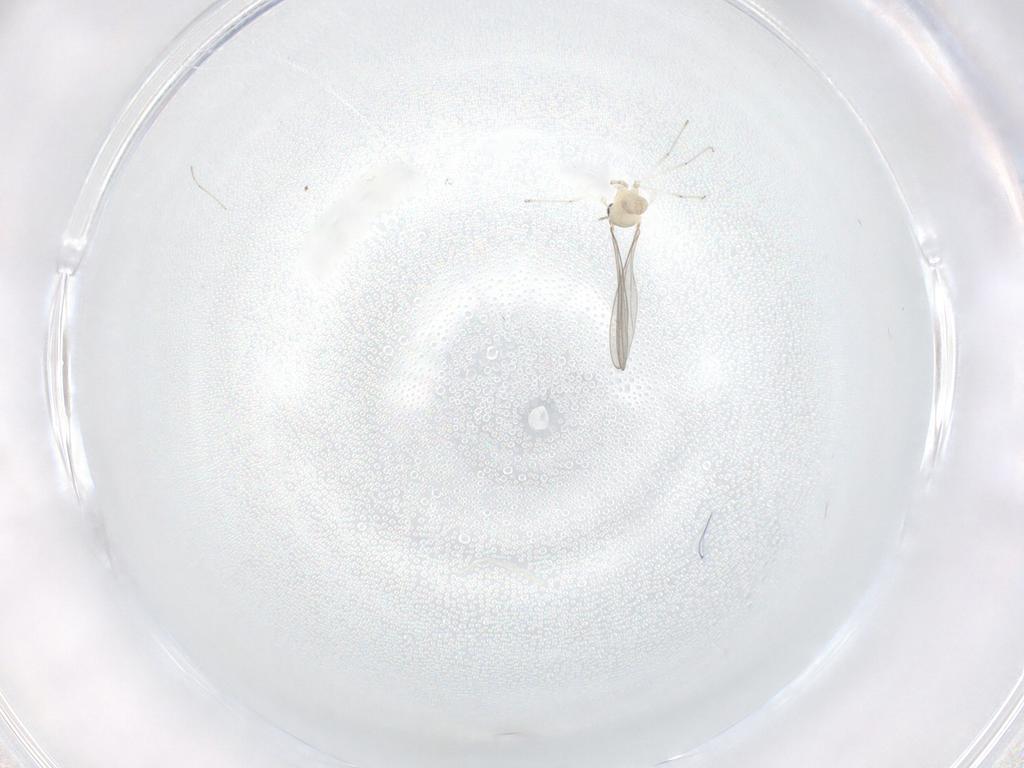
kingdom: Animalia
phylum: Arthropoda
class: Insecta
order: Diptera
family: Cecidomyiidae
